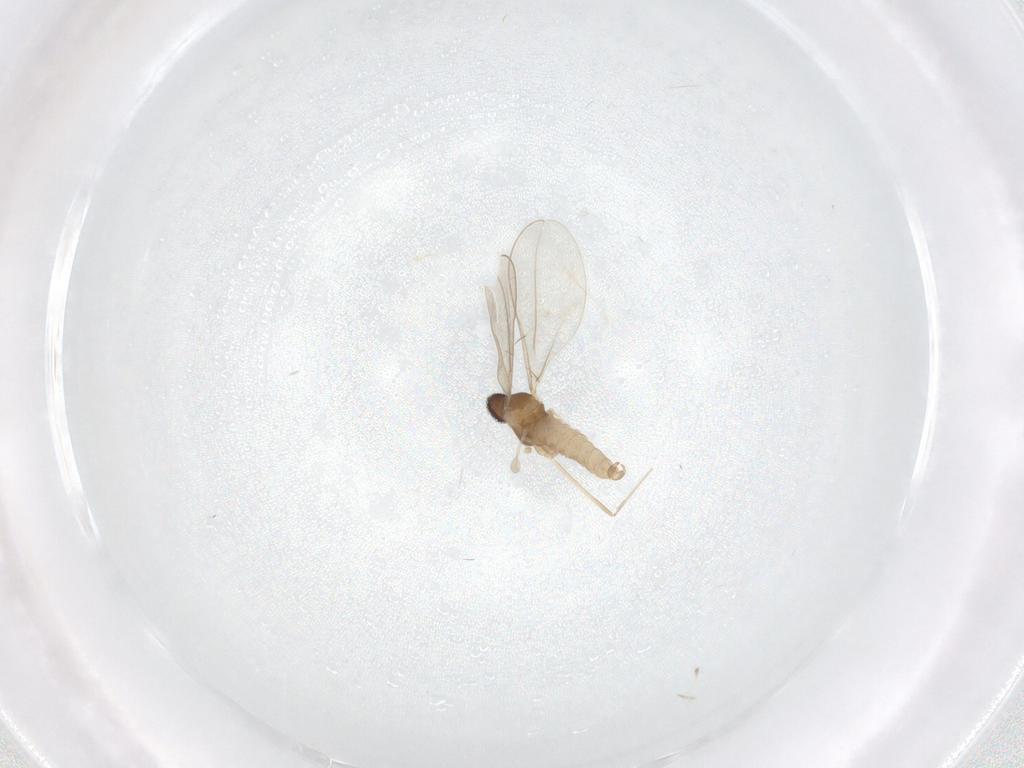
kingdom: Animalia
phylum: Arthropoda
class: Insecta
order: Diptera
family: Cecidomyiidae
